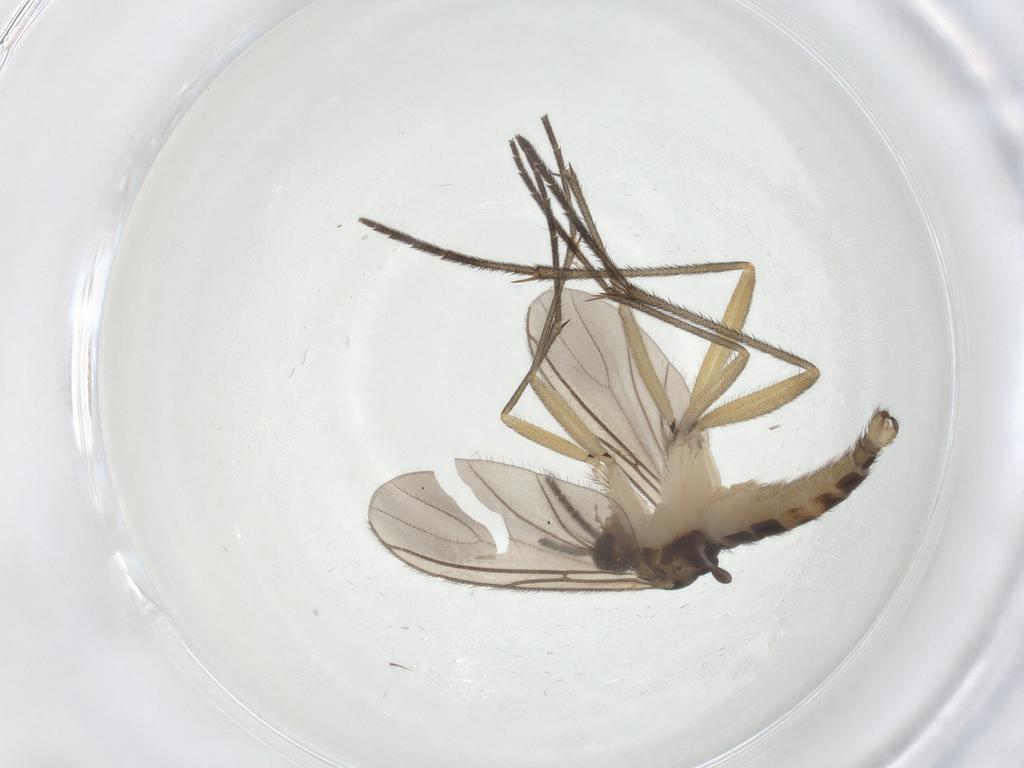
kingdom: Animalia
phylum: Arthropoda
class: Insecta
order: Diptera
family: Sciaridae
